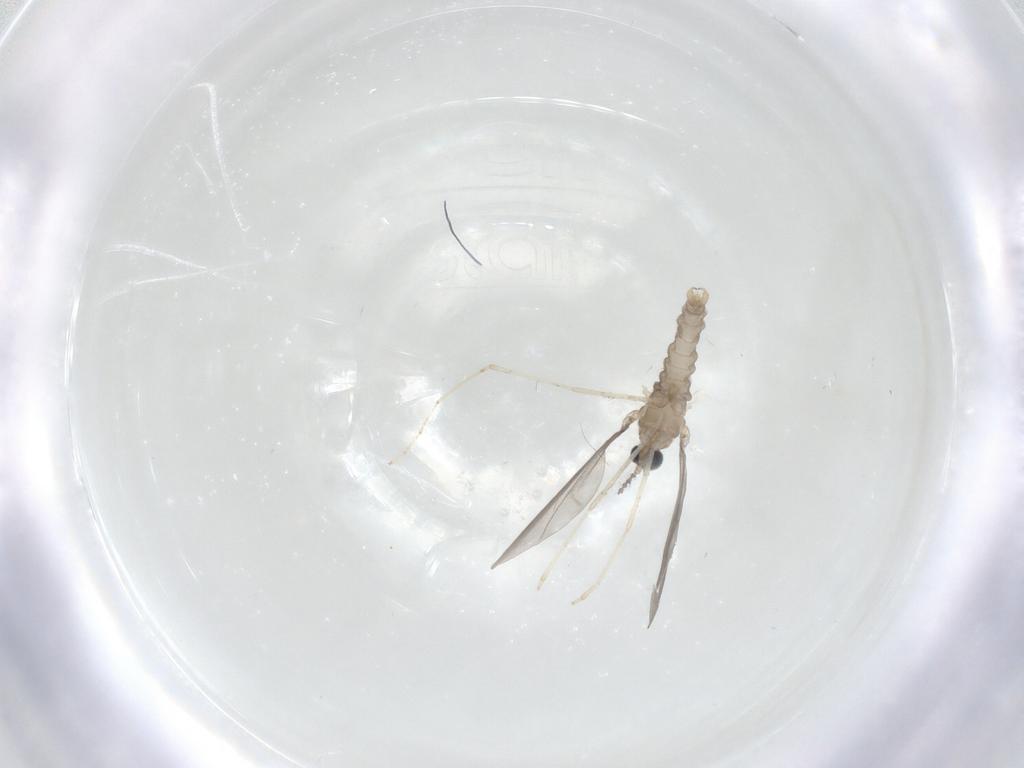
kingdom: Animalia
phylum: Arthropoda
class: Insecta
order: Diptera
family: Cecidomyiidae
